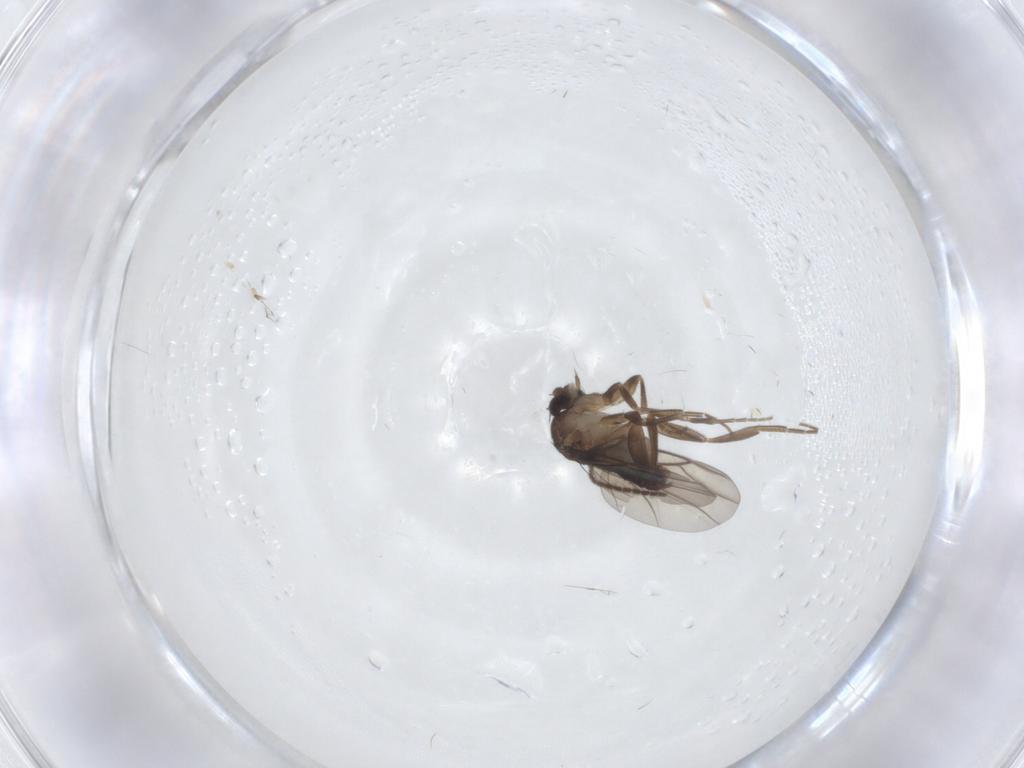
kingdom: Animalia
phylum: Arthropoda
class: Insecta
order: Diptera
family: Sciaridae
